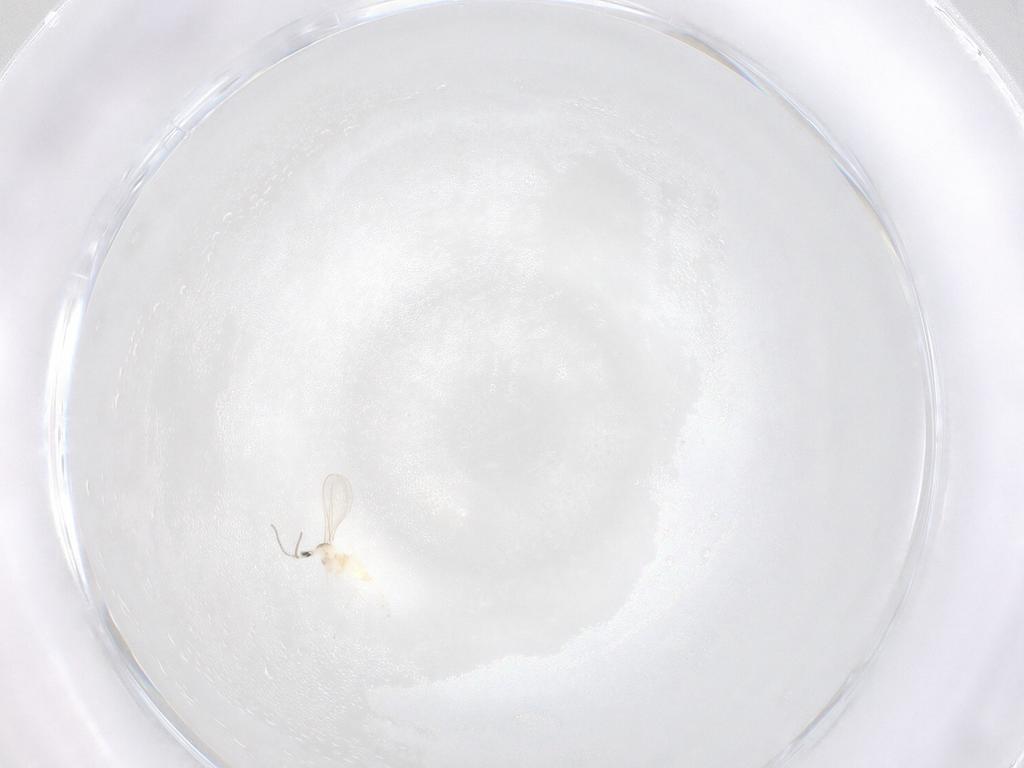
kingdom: Animalia
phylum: Arthropoda
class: Insecta
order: Diptera
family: Cecidomyiidae
